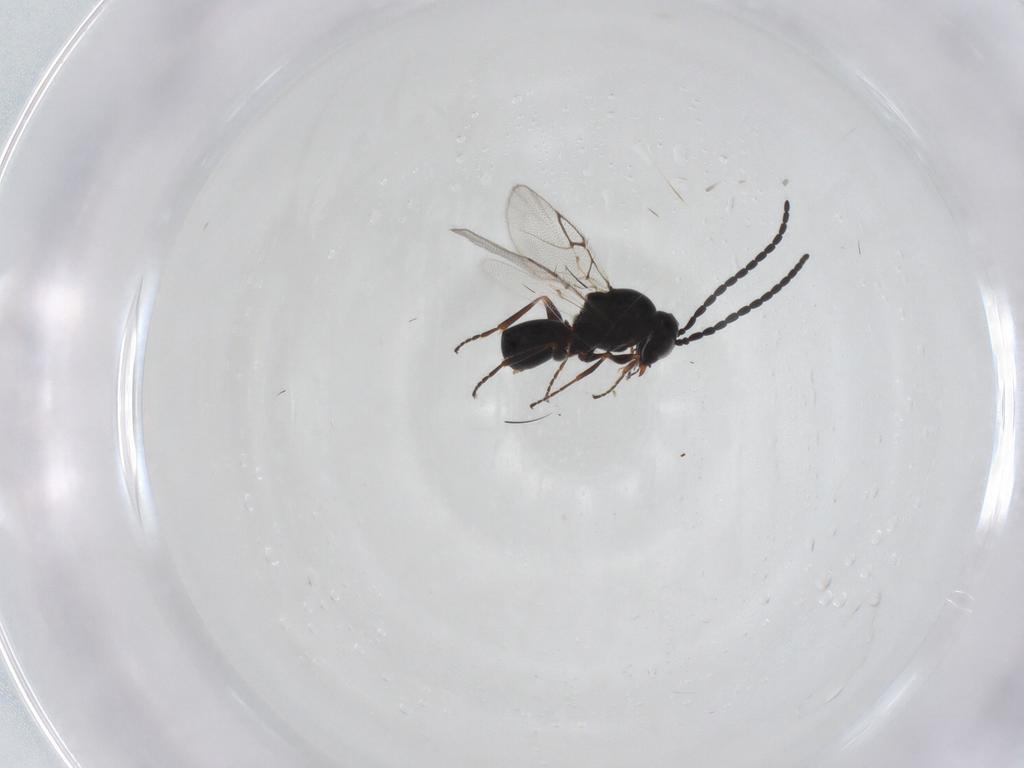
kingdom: Animalia
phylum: Arthropoda
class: Insecta
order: Hymenoptera
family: Figitidae
